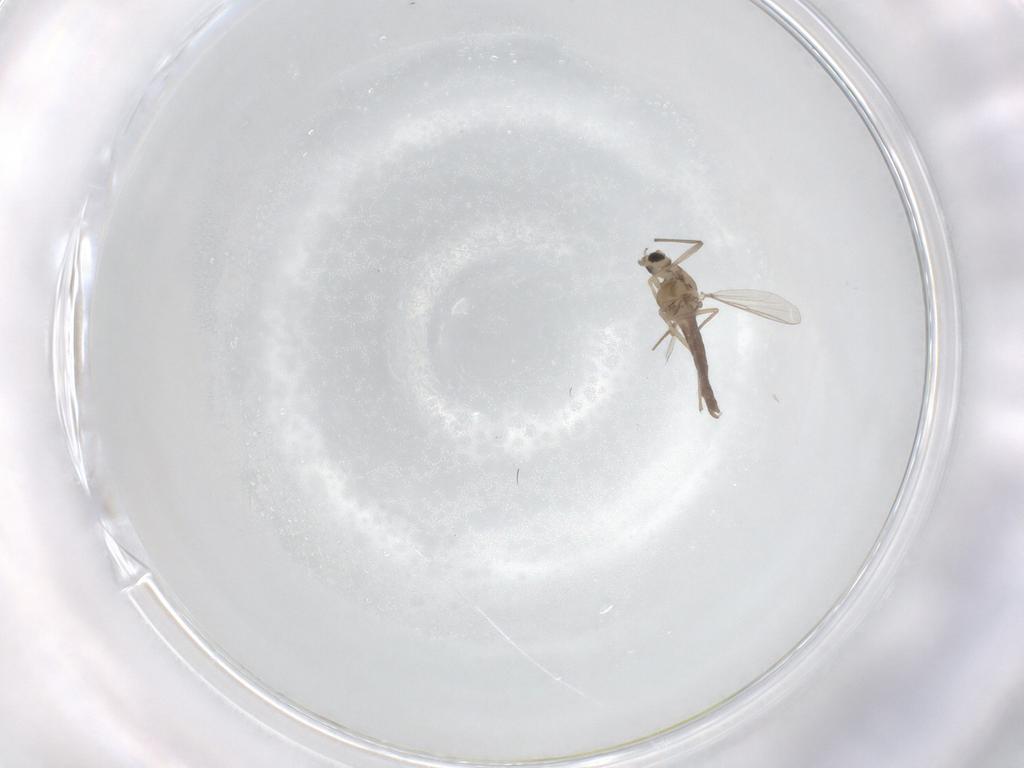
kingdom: Animalia
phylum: Arthropoda
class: Insecta
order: Diptera
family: Chironomidae
